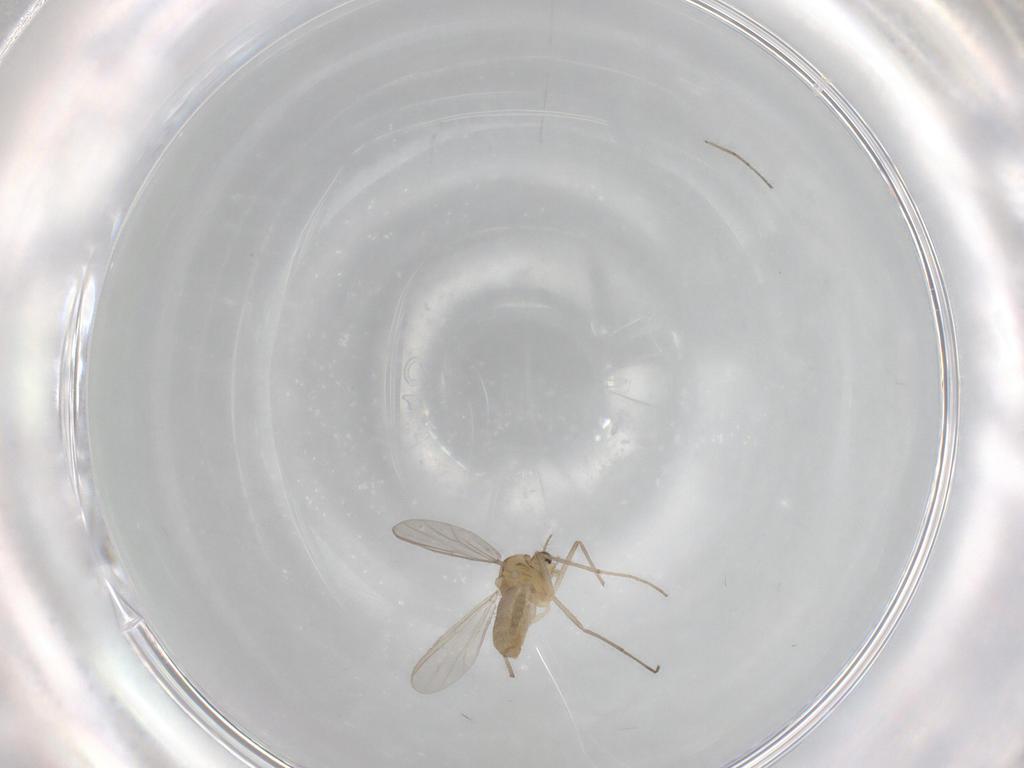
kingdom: Animalia
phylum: Arthropoda
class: Insecta
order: Diptera
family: Chironomidae
